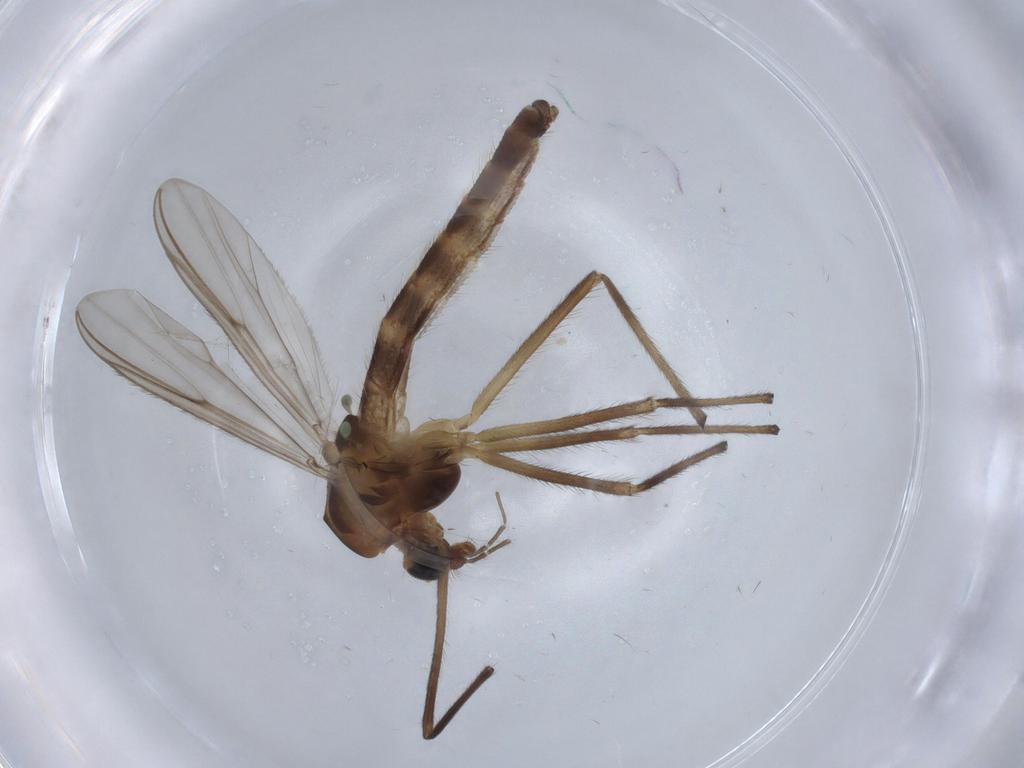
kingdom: Animalia
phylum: Arthropoda
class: Insecta
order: Diptera
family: Chironomidae
